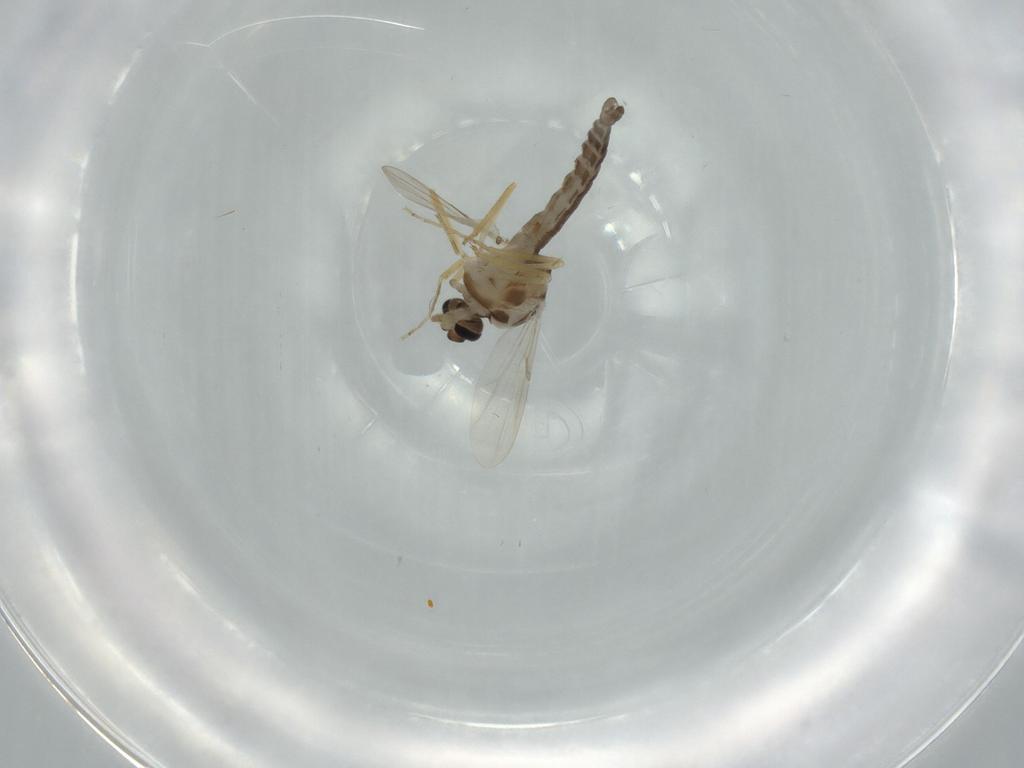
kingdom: Animalia
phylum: Arthropoda
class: Insecta
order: Diptera
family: Ceratopogonidae
